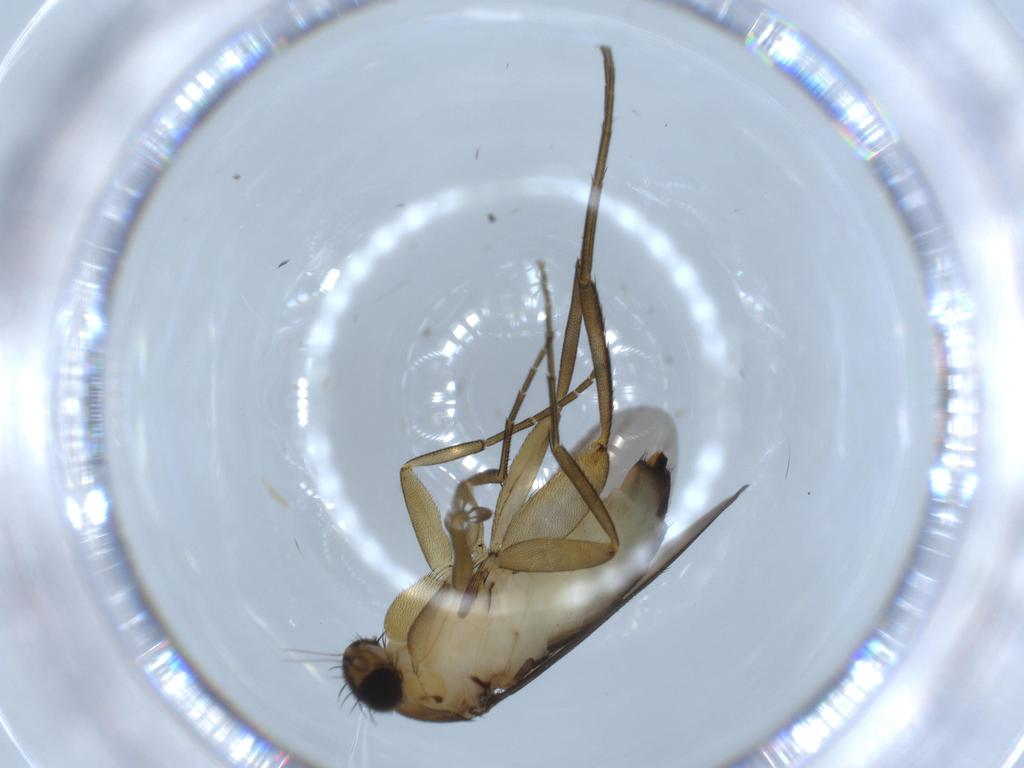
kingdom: Animalia
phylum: Arthropoda
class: Insecta
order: Diptera
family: Phoridae
